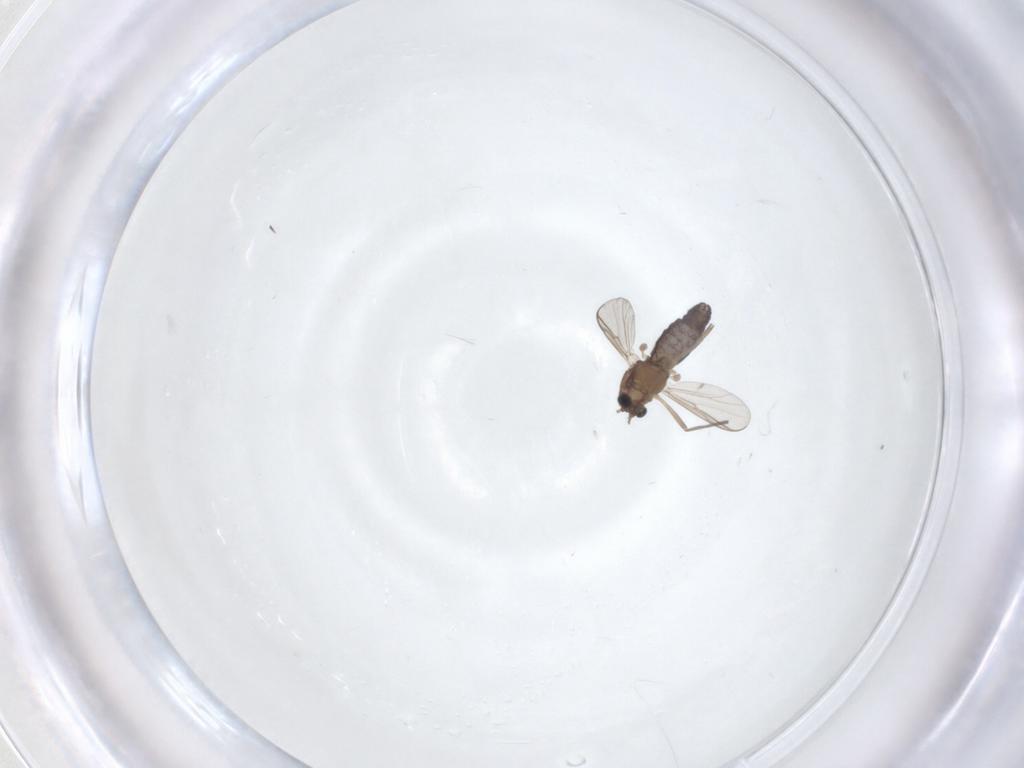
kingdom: Animalia
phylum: Arthropoda
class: Insecta
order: Diptera
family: Chironomidae
